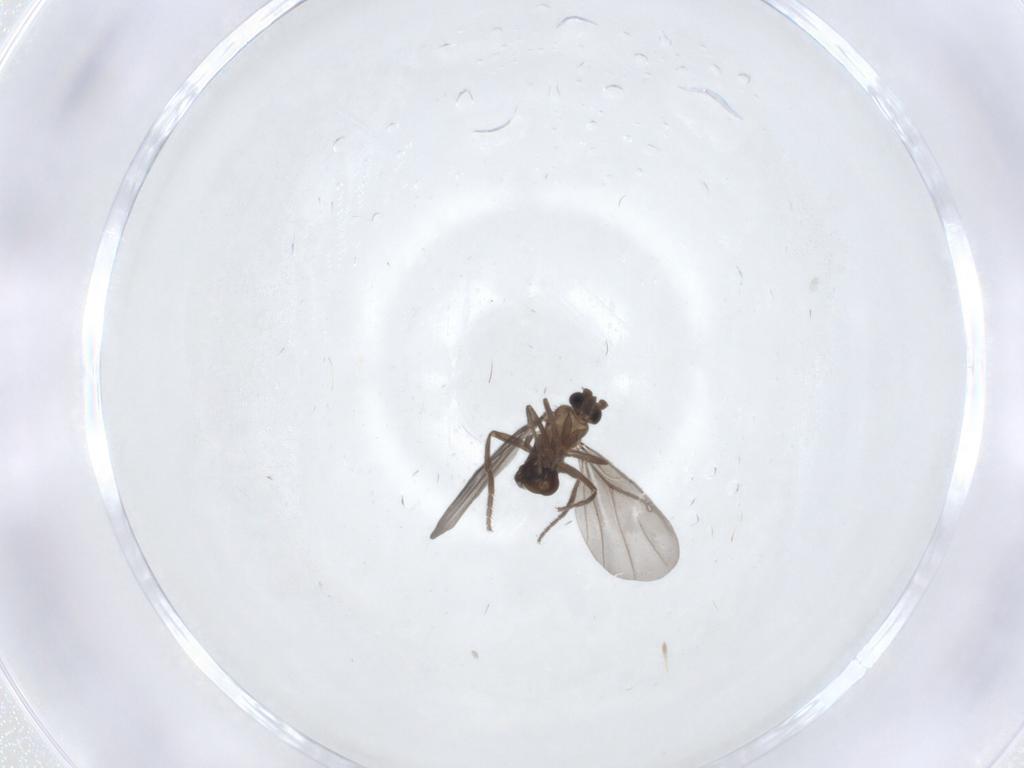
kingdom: Animalia
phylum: Arthropoda
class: Insecta
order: Diptera
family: Phoridae
